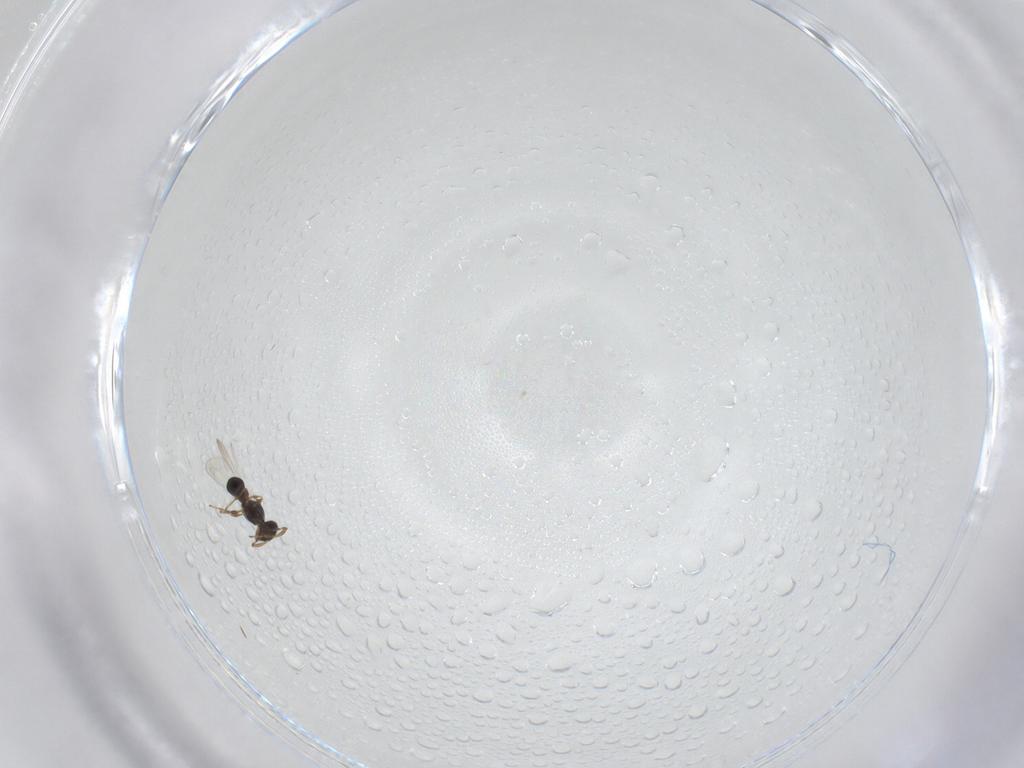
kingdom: Animalia
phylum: Arthropoda
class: Insecta
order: Hymenoptera
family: Platygastridae
